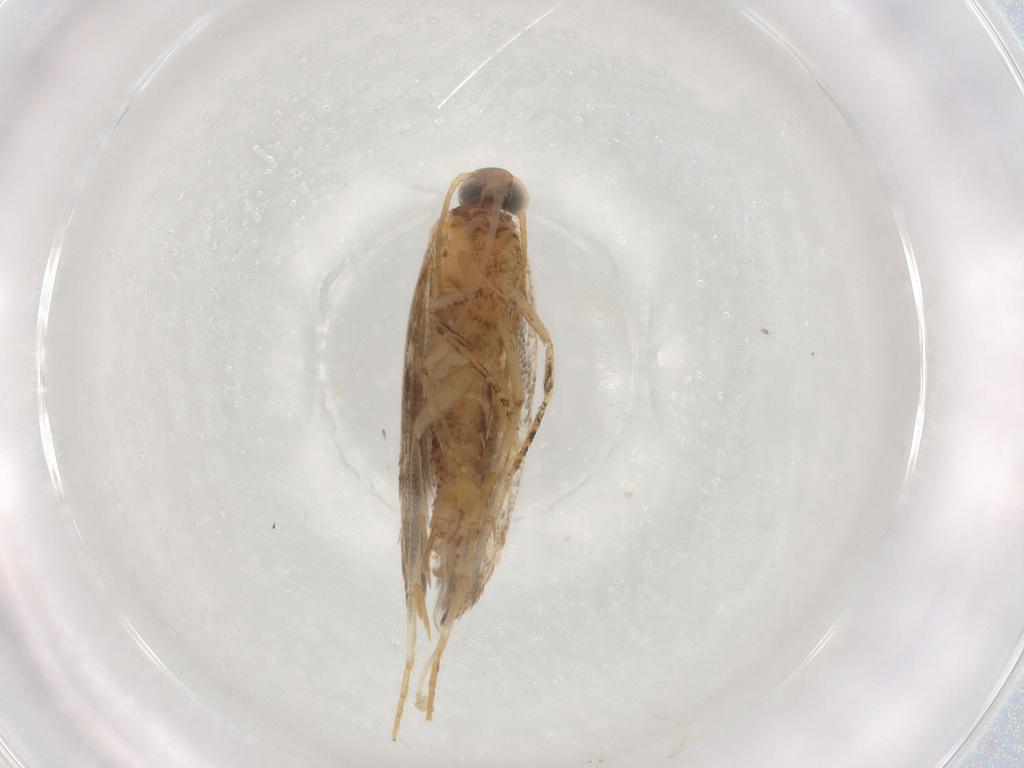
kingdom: Animalia
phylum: Arthropoda
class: Insecta
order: Lepidoptera
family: Plutellidae
